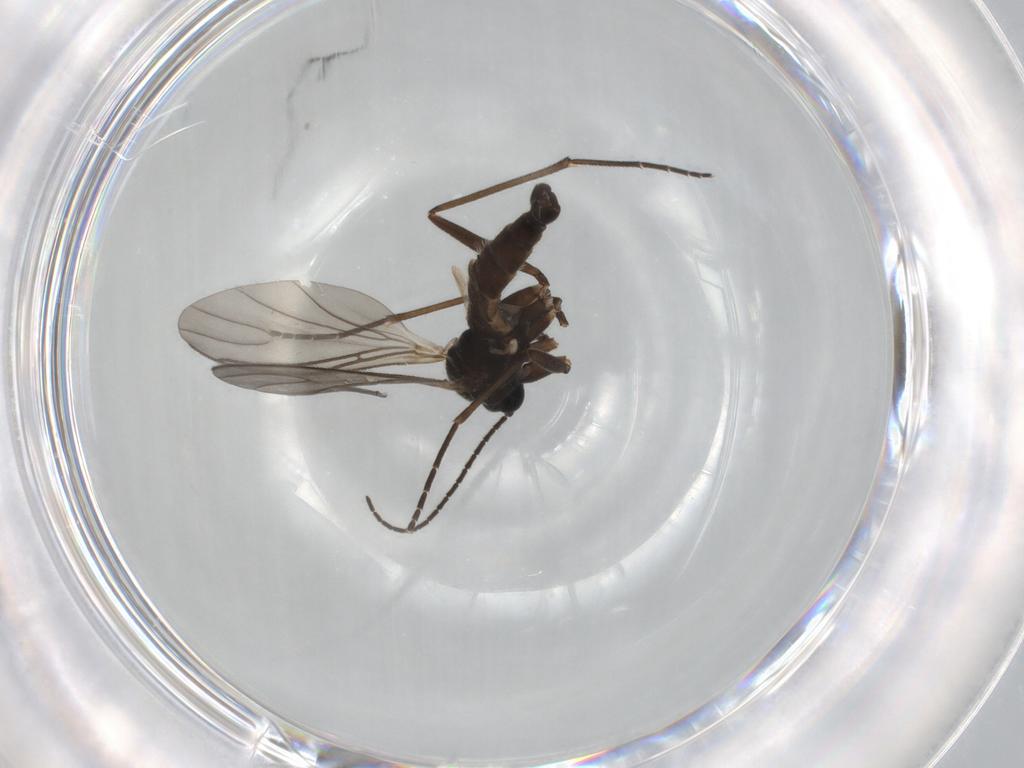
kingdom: Animalia
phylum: Arthropoda
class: Insecta
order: Diptera
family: Sciaridae
